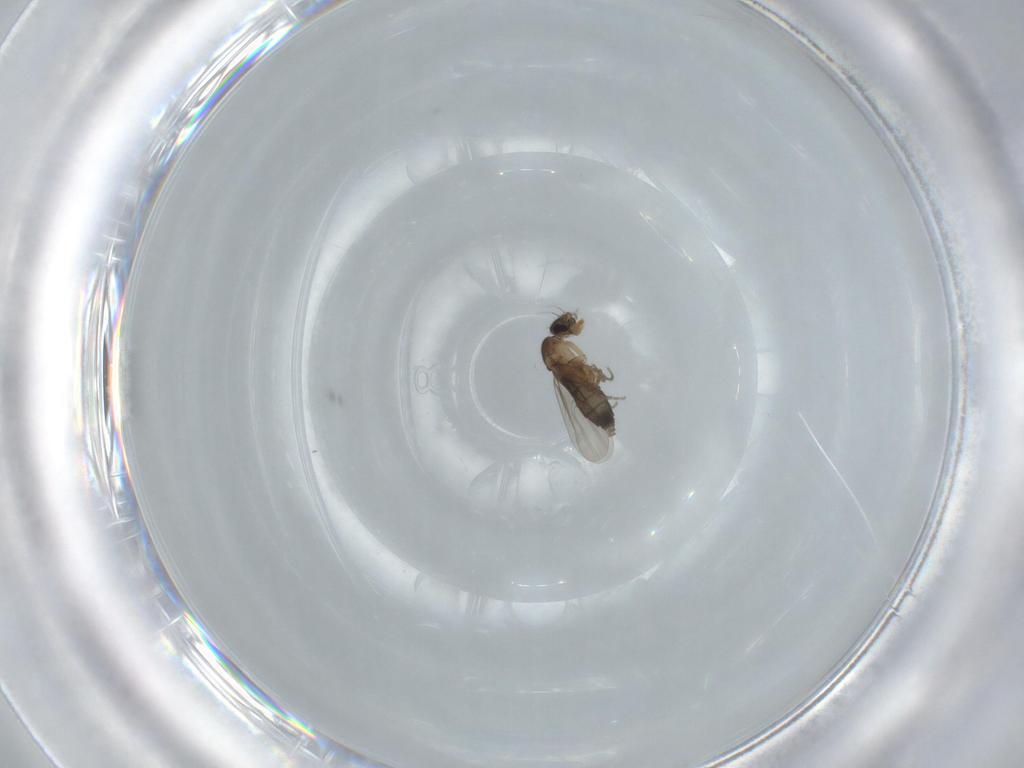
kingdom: Animalia
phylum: Arthropoda
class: Insecta
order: Diptera
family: Phoridae
